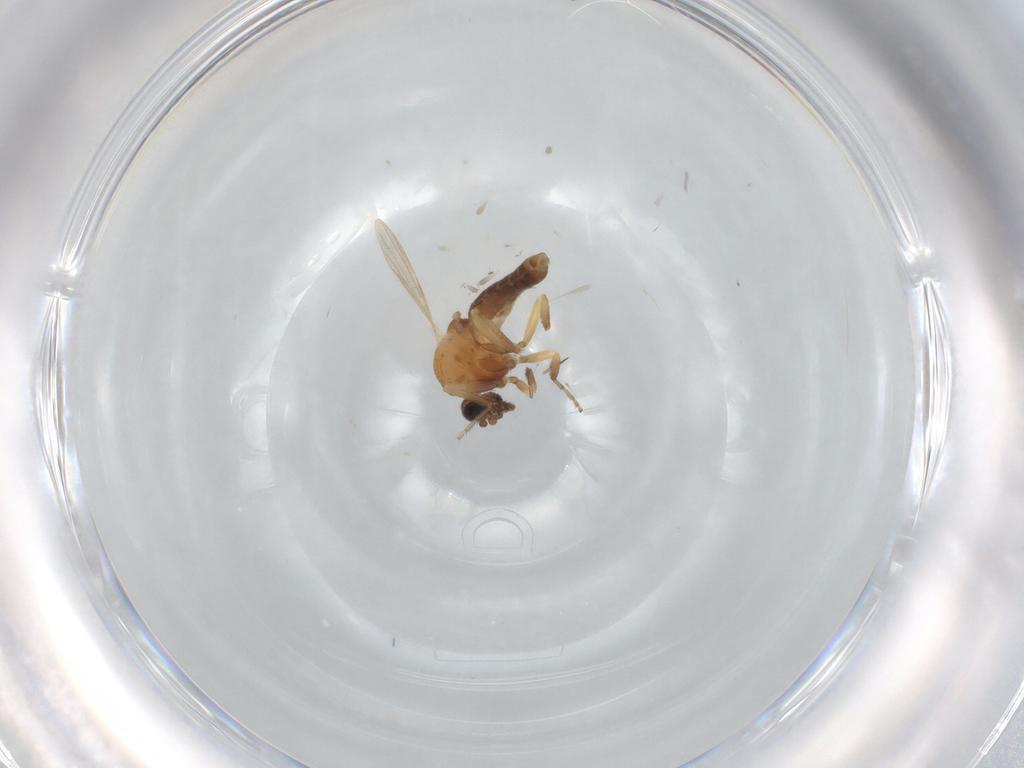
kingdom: Animalia
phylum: Arthropoda
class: Insecta
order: Diptera
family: Ceratopogonidae
